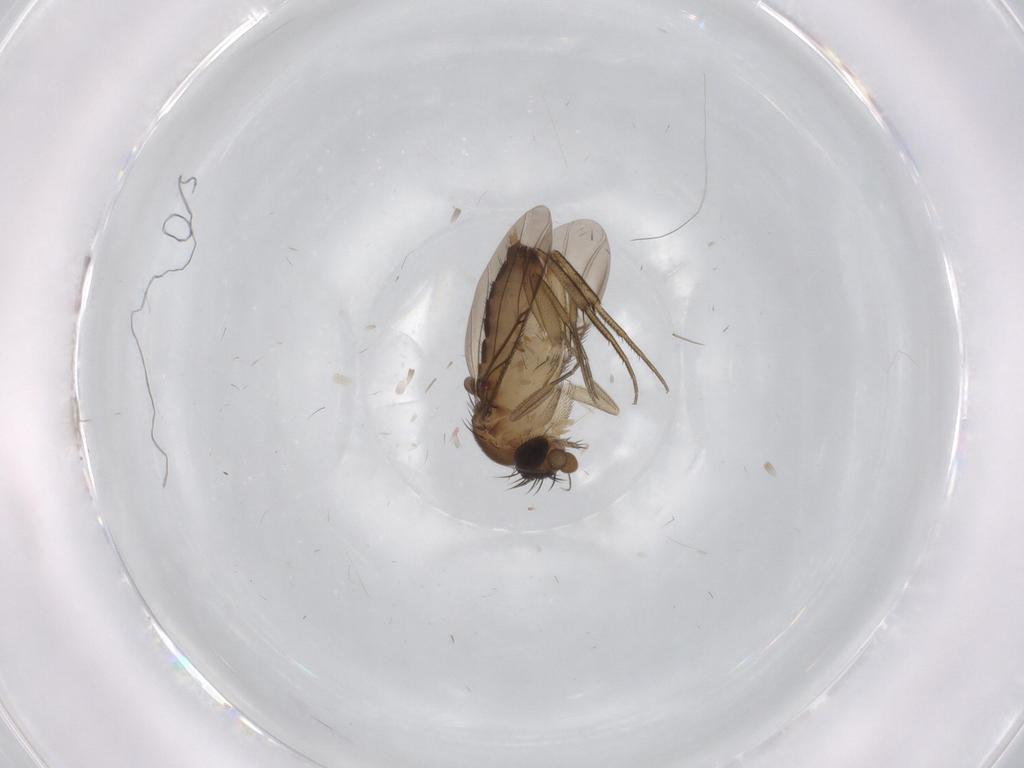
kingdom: Animalia
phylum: Arthropoda
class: Insecta
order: Diptera
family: Phoridae
